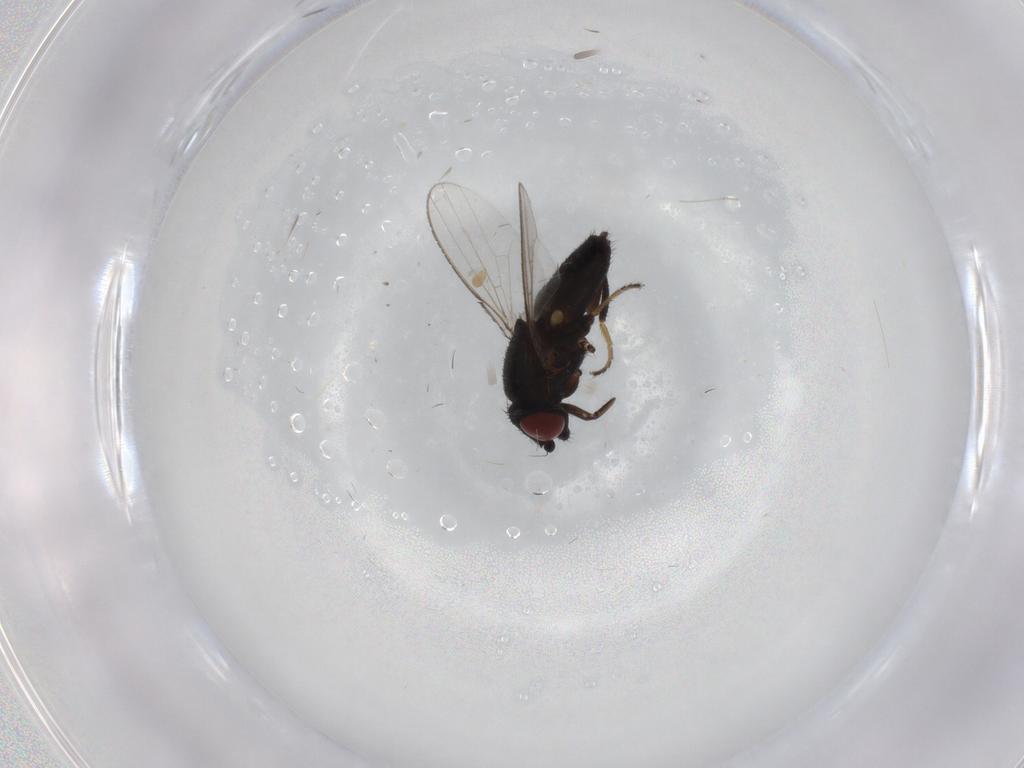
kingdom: Animalia
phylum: Arthropoda
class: Insecta
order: Diptera
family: Milichiidae
